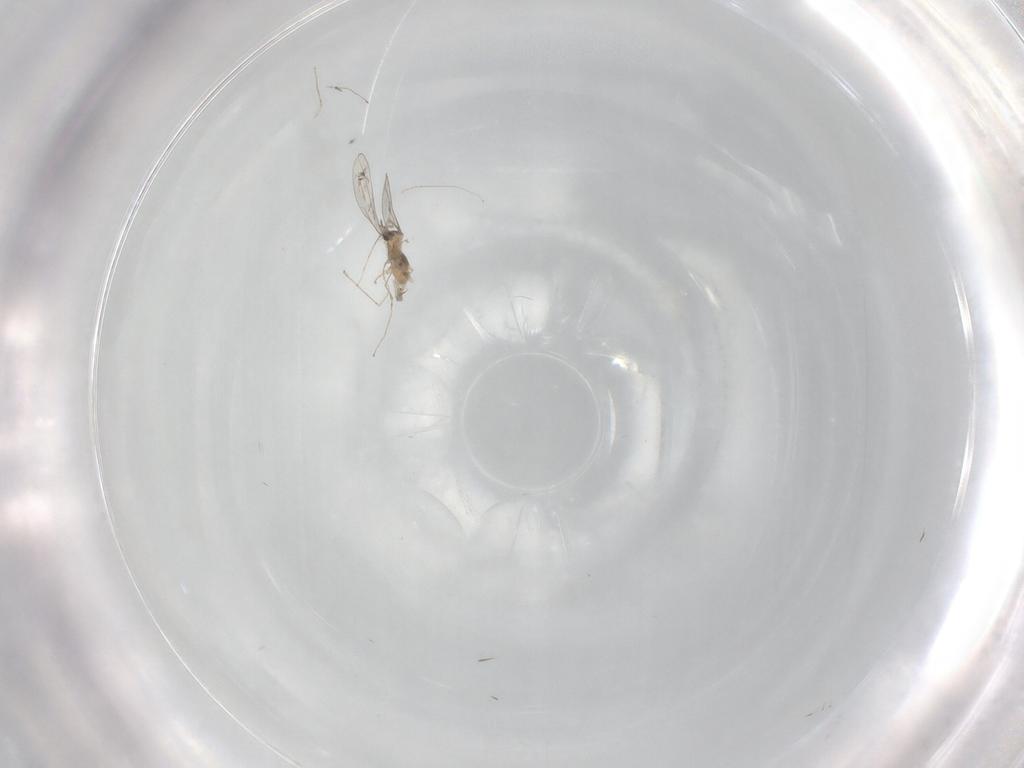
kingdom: Animalia
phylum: Arthropoda
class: Insecta
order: Diptera
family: Cecidomyiidae
